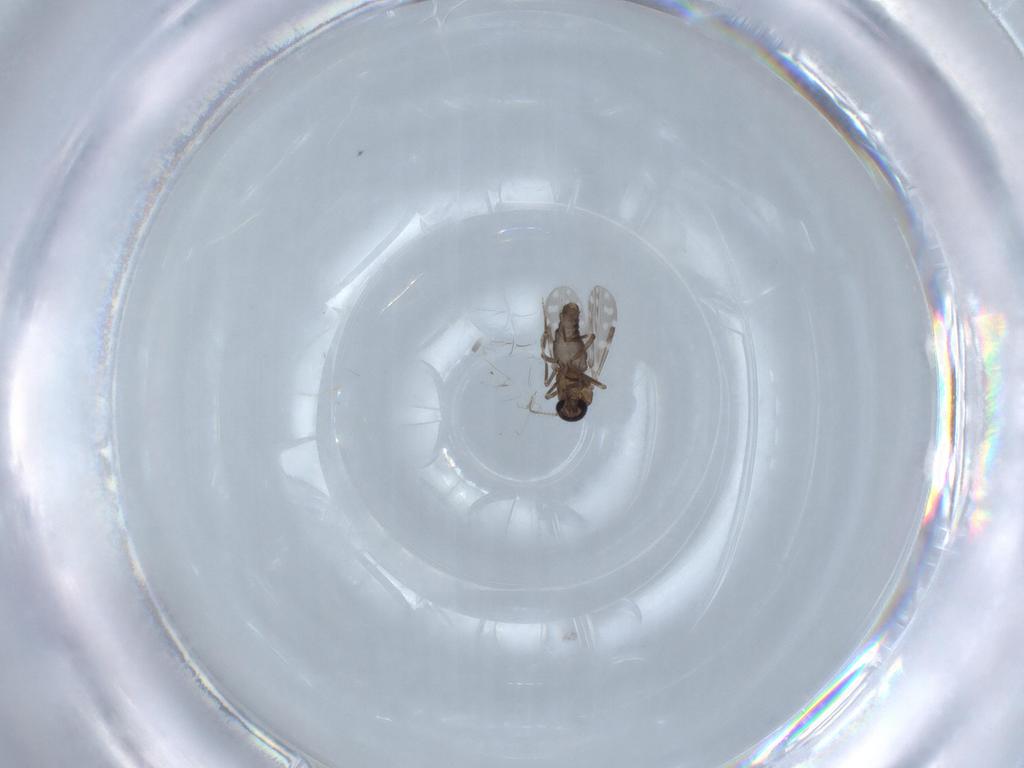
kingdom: Animalia
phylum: Arthropoda
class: Insecta
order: Diptera
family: Ceratopogonidae
